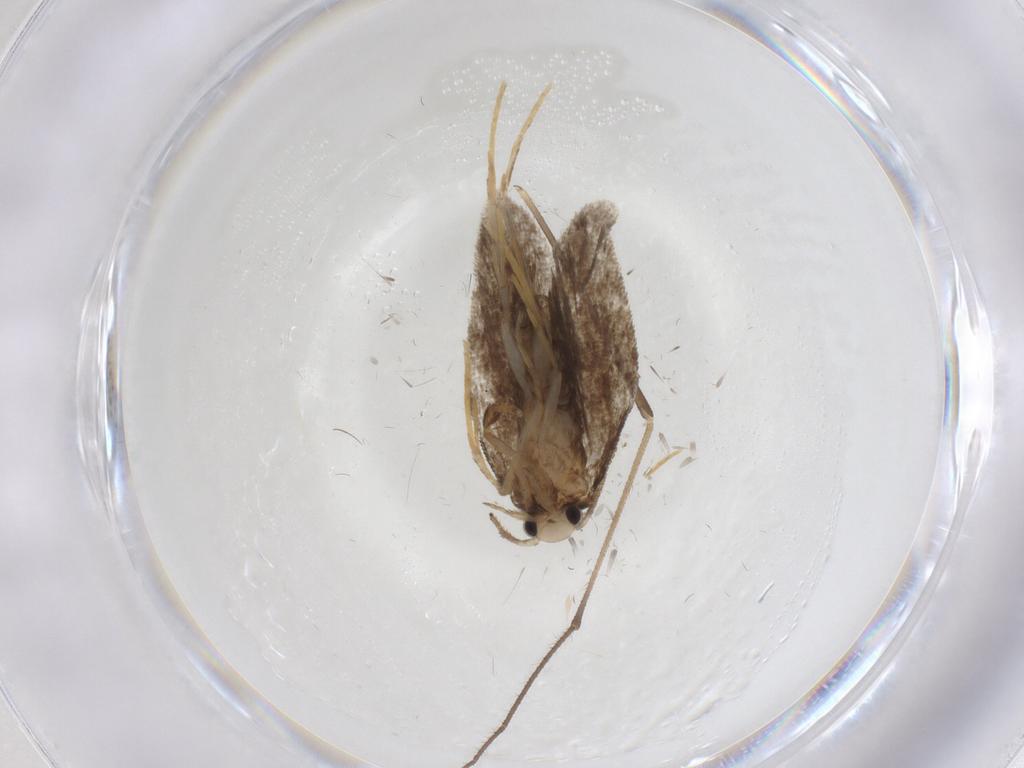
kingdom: Animalia
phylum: Arthropoda
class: Insecta
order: Lepidoptera
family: Psychidae
